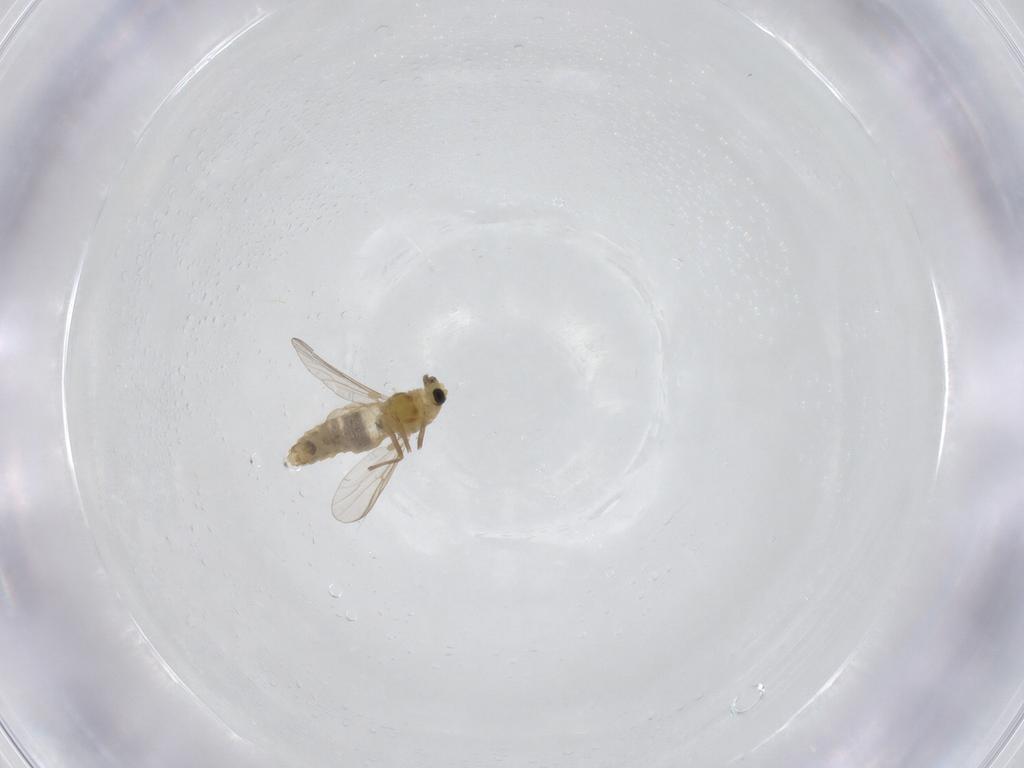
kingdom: Animalia
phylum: Arthropoda
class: Insecta
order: Diptera
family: Chironomidae
